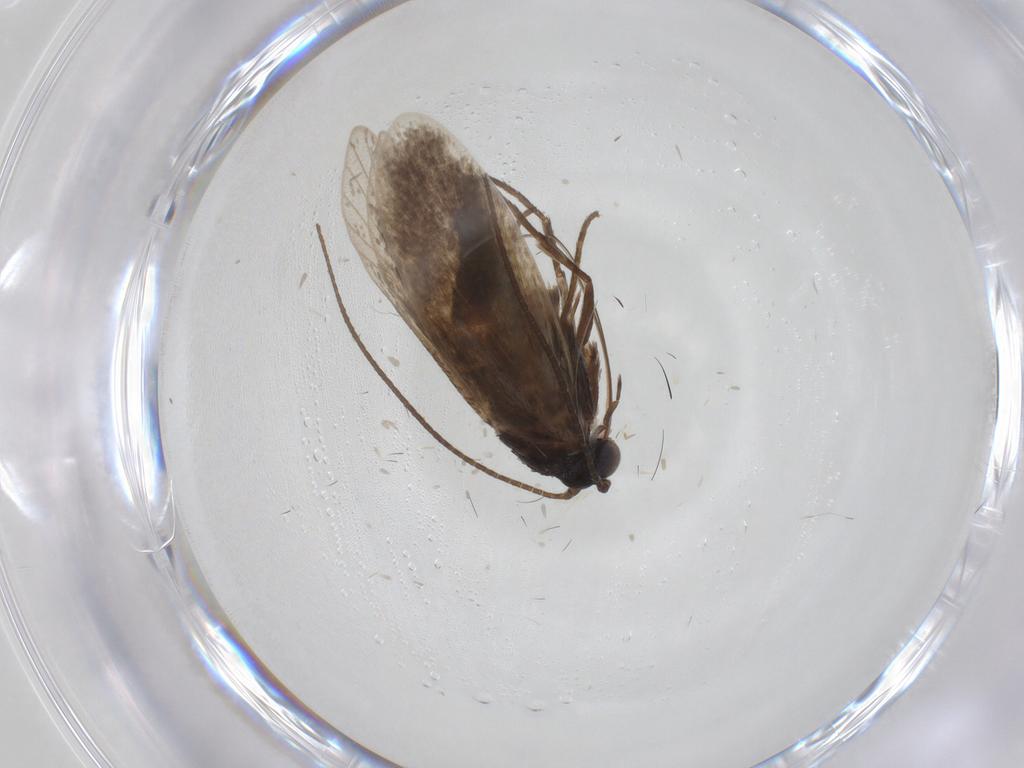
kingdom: Animalia
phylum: Arthropoda
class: Insecta
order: Lepidoptera
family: Adelidae
